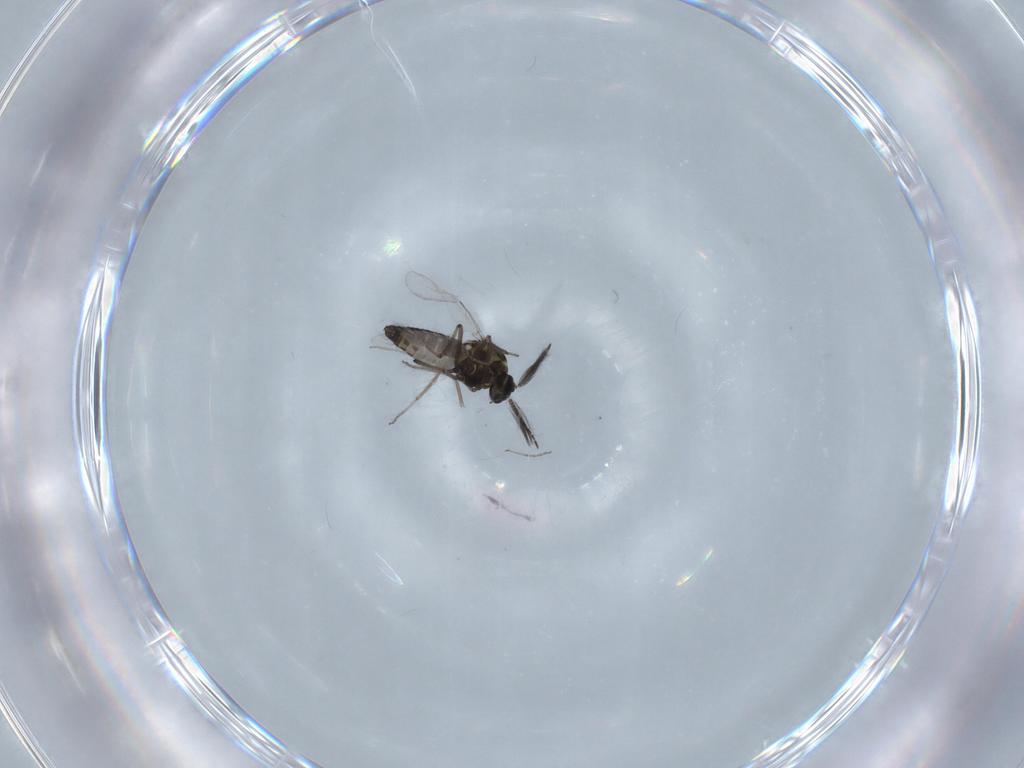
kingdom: Animalia
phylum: Arthropoda
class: Insecta
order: Diptera
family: Ceratopogonidae
